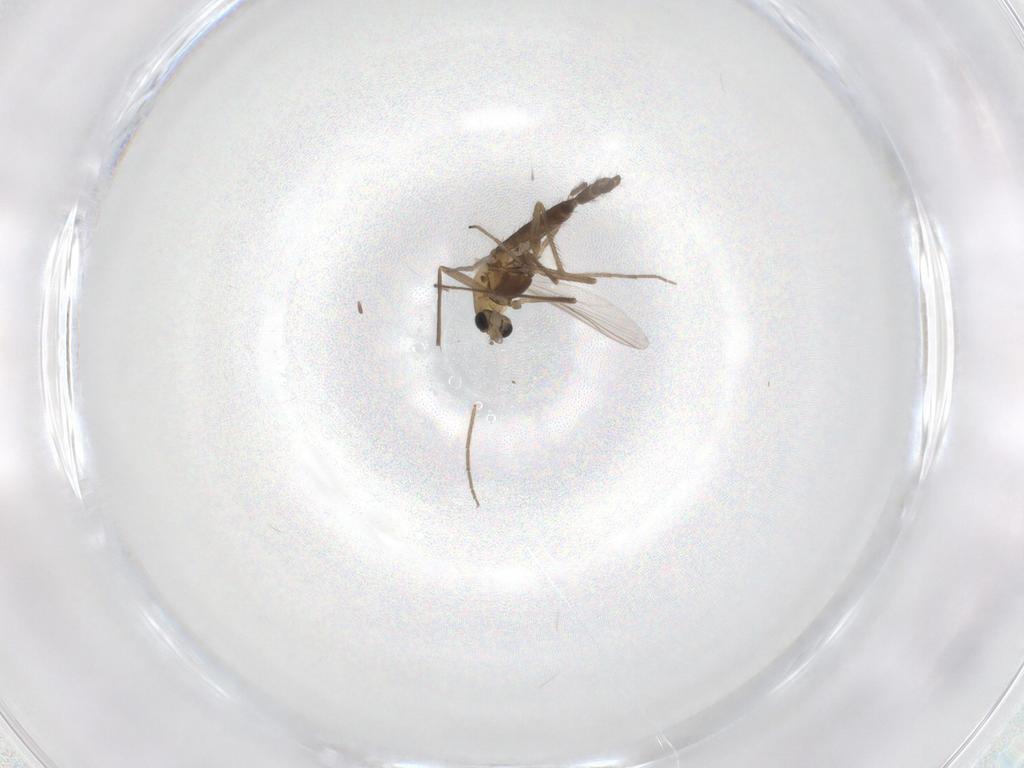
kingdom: Animalia
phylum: Arthropoda
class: Insecta
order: Diptera
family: Chironomidae
